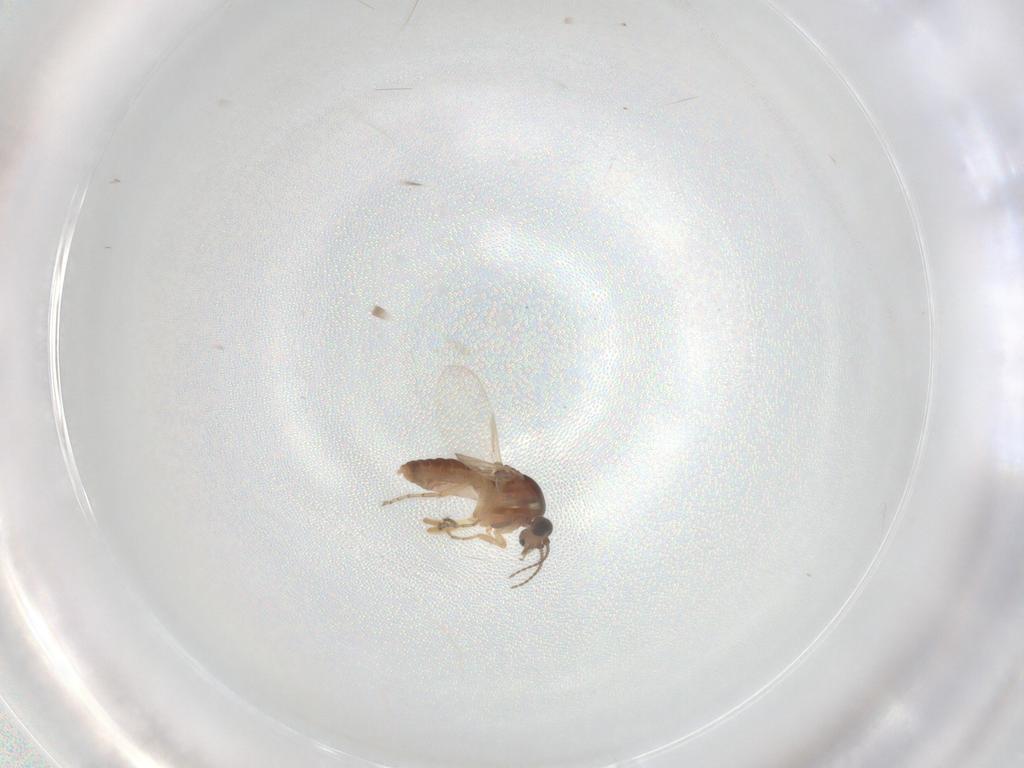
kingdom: Animalia
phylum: Arthropoda
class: Insecta
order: Diptera
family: Ceratopogonidae
